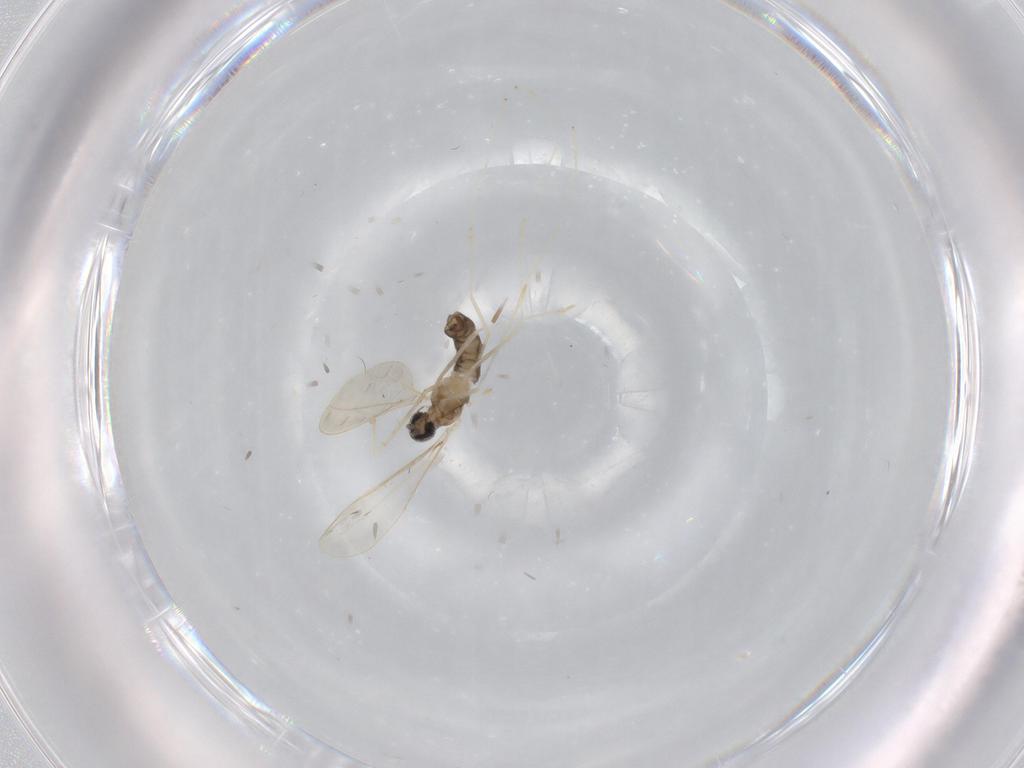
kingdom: Animalia
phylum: Arthropoda
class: Insecta
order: Diptera
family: Cecidomyiidae
